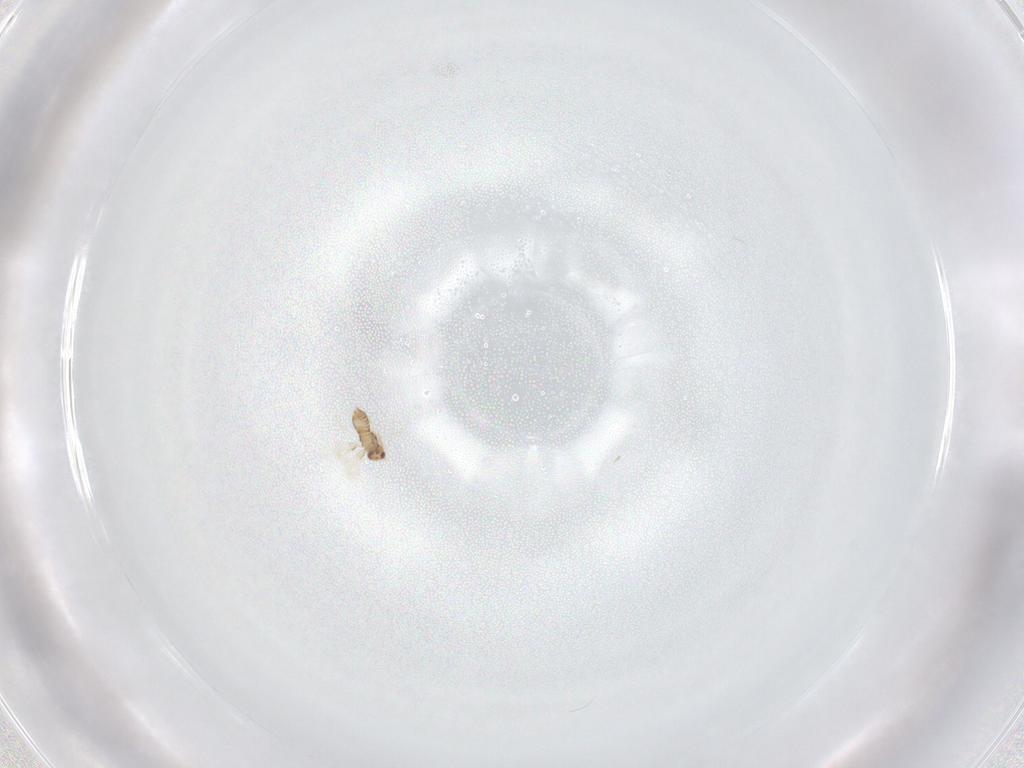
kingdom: Animalia
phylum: Arthropoda
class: Insecta
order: Hymenoptera
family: Aphelinidae
